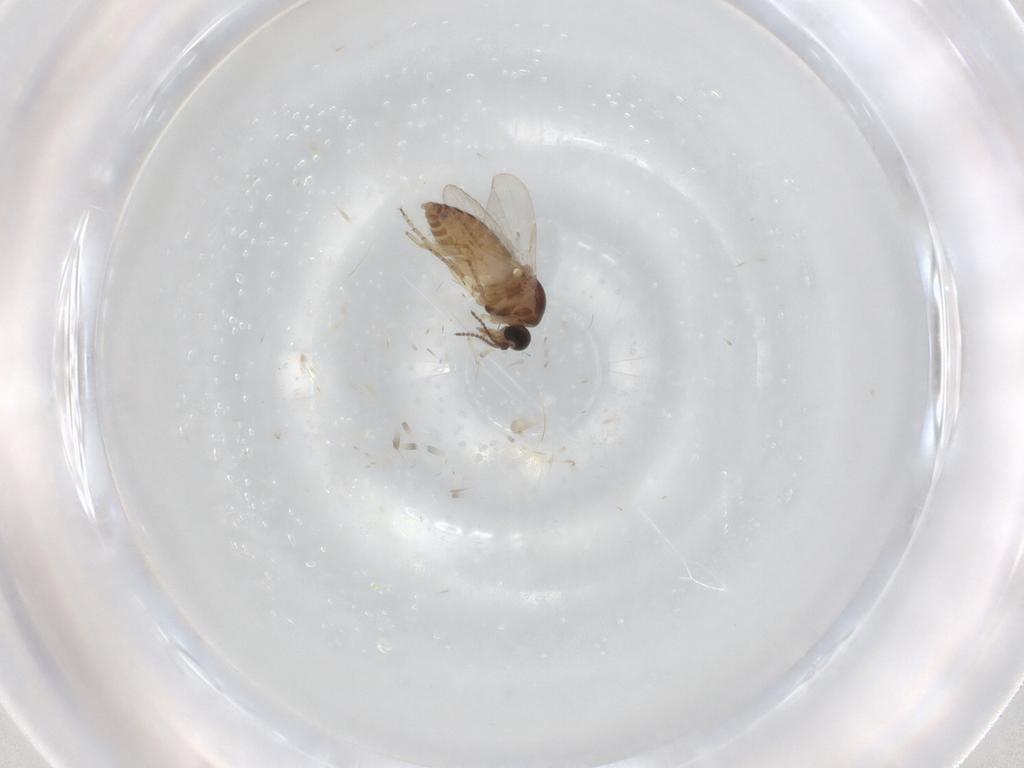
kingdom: Animalia
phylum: Arthropoda
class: Insecta
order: Diptera
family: Ceratopogonidae
